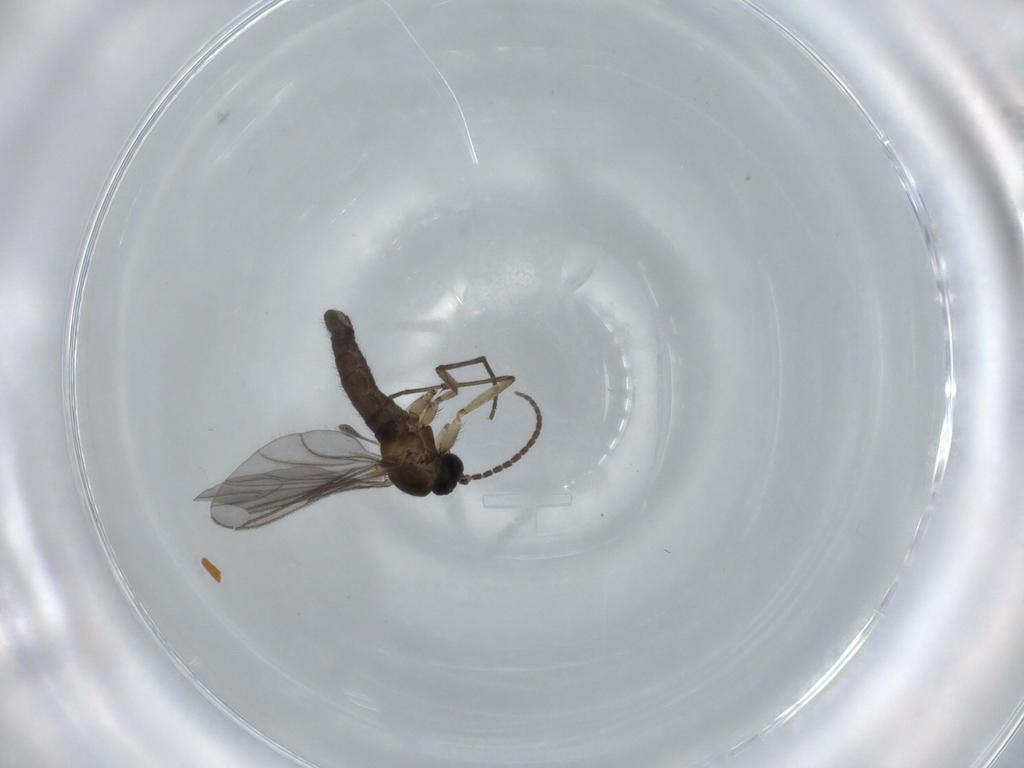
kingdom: Animalia
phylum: Arthropoda
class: Insecta
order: Diptera
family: Sciaridae
